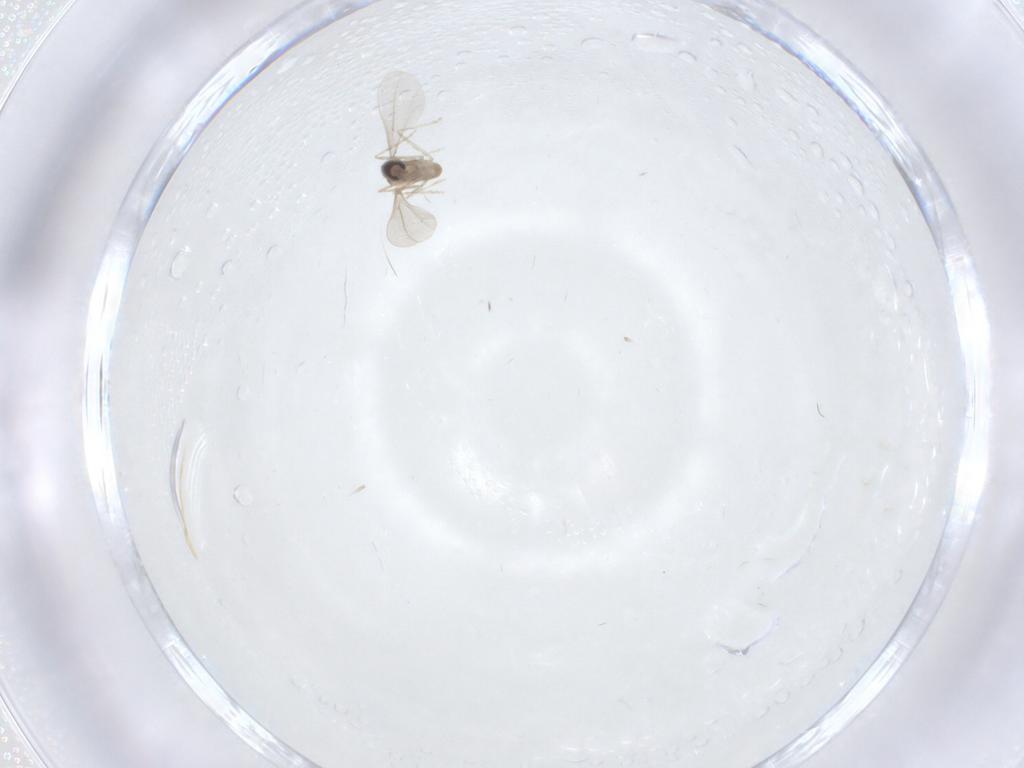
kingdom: Animalia
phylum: Arthropoda
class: Insecta
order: Diptera
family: Cecidomyiidae
